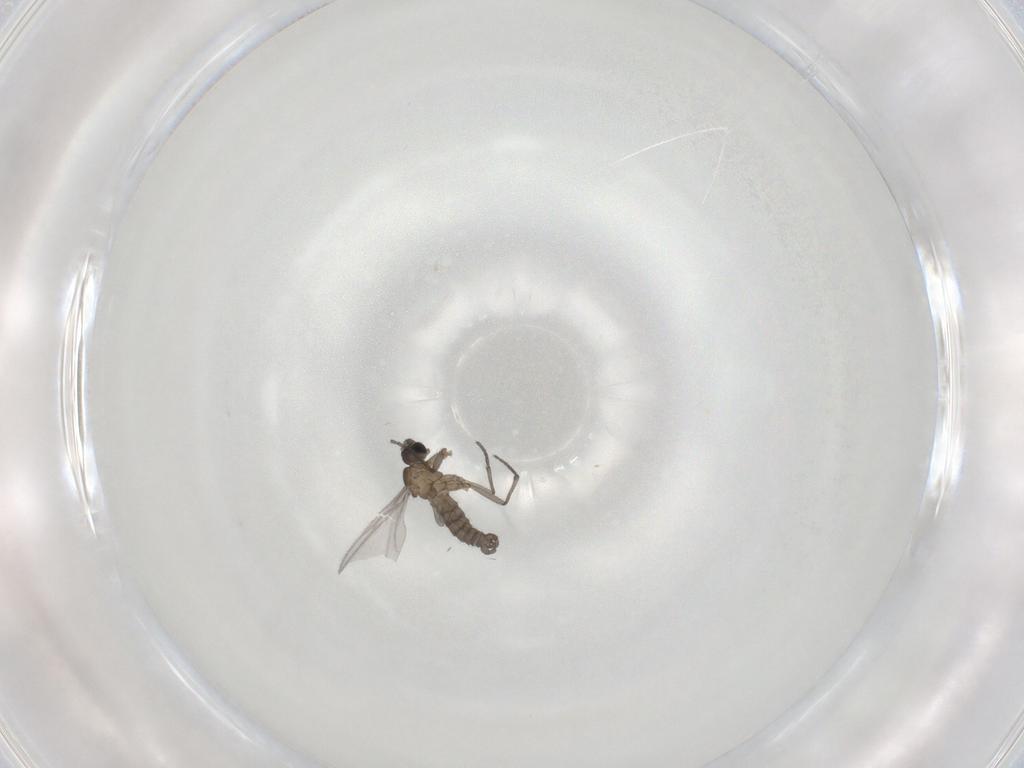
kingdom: Animalia
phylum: Arthropoda
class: Insecta
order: Diptera
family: Sciaridae
